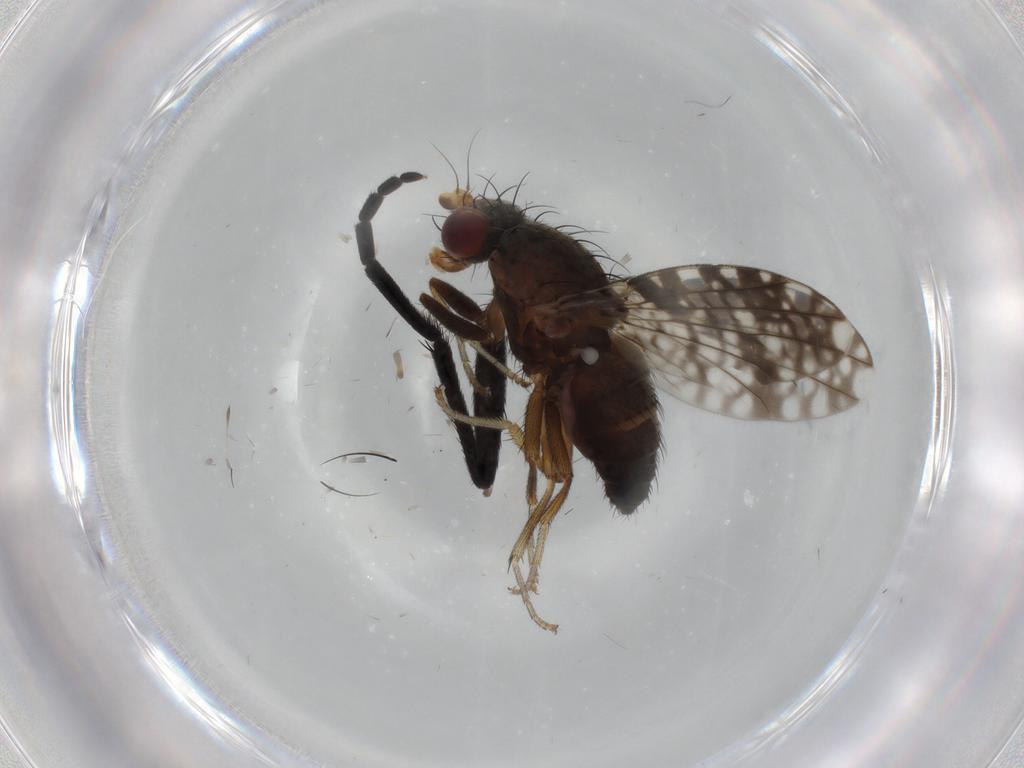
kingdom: Animalia
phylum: Arthropoda
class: Insecta
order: Diptera
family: Tephritidae
